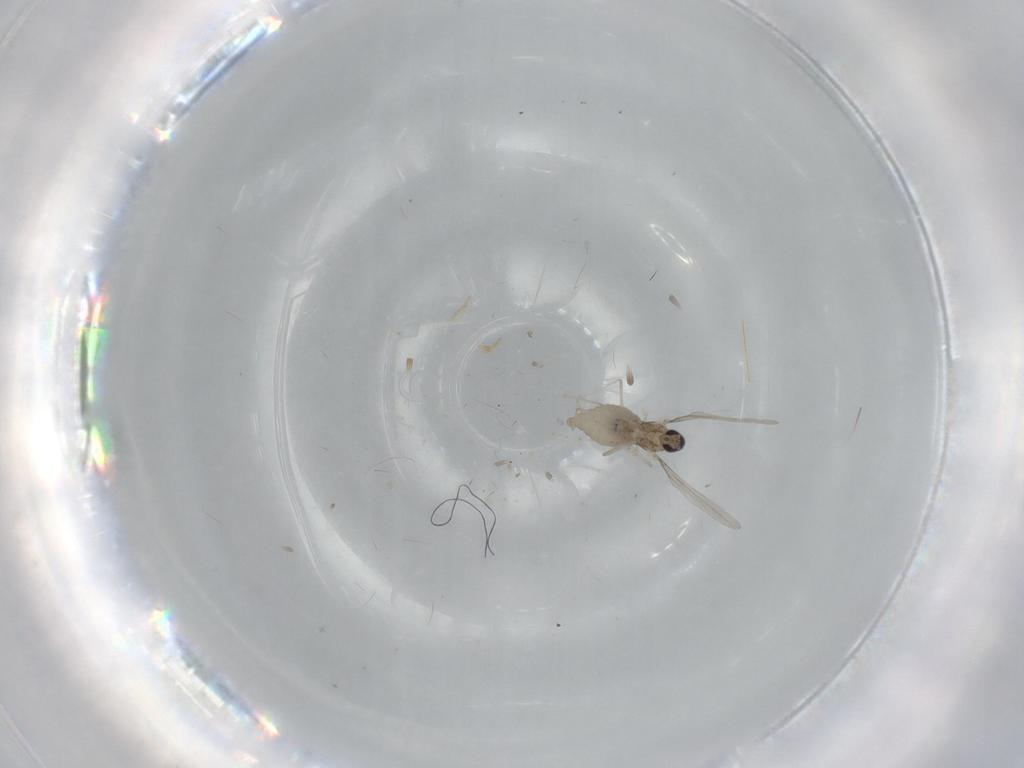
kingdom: Animalia
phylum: Arthropoda
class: Insecta
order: Diptera
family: Cecidomyiidae
